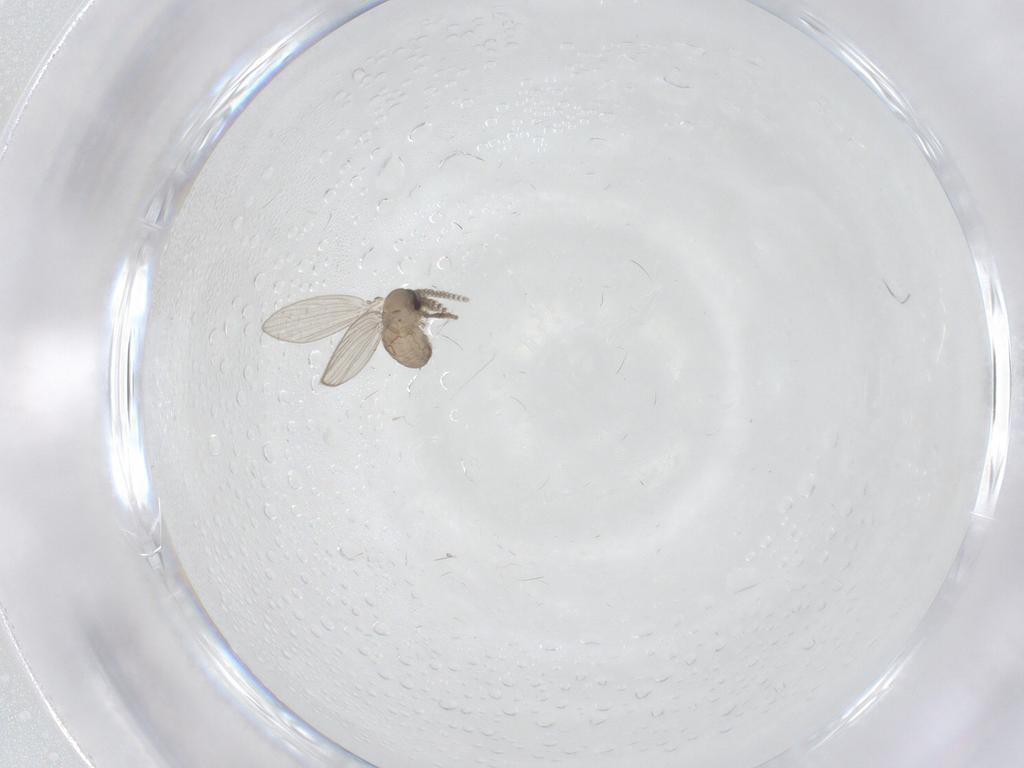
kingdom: Animalia
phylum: Arthropoda
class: Insecta
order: Diptera
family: Psychodidae
